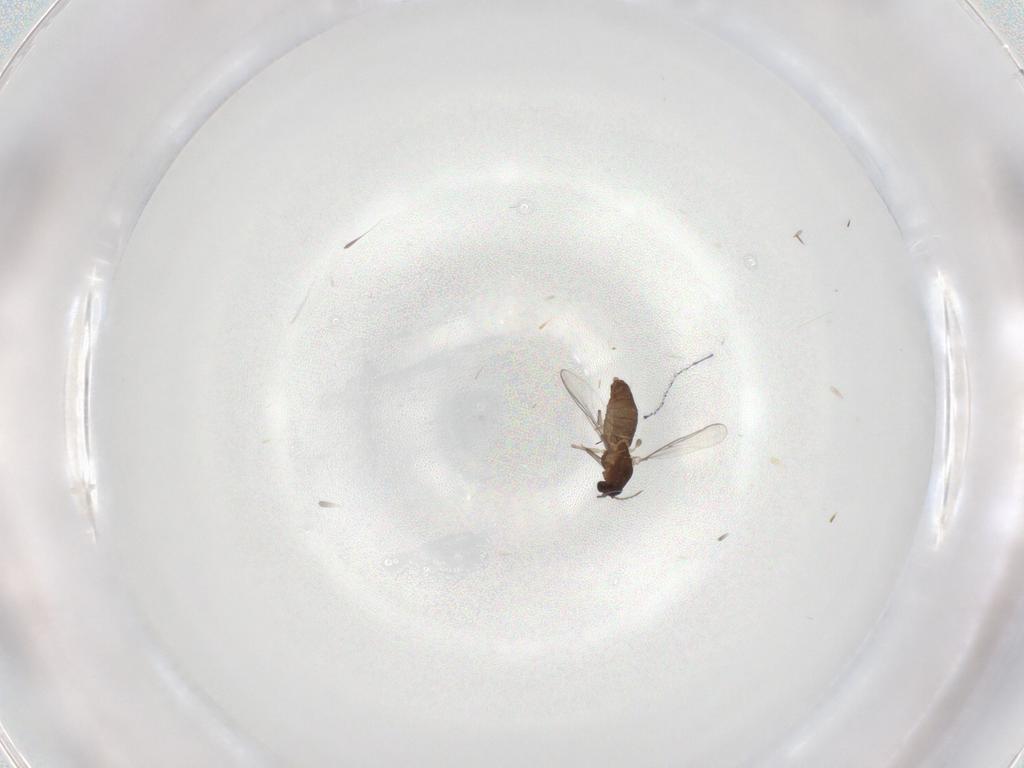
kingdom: Animalia
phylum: Arthropoda
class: Insecta
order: Diptera
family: Chironomidae
